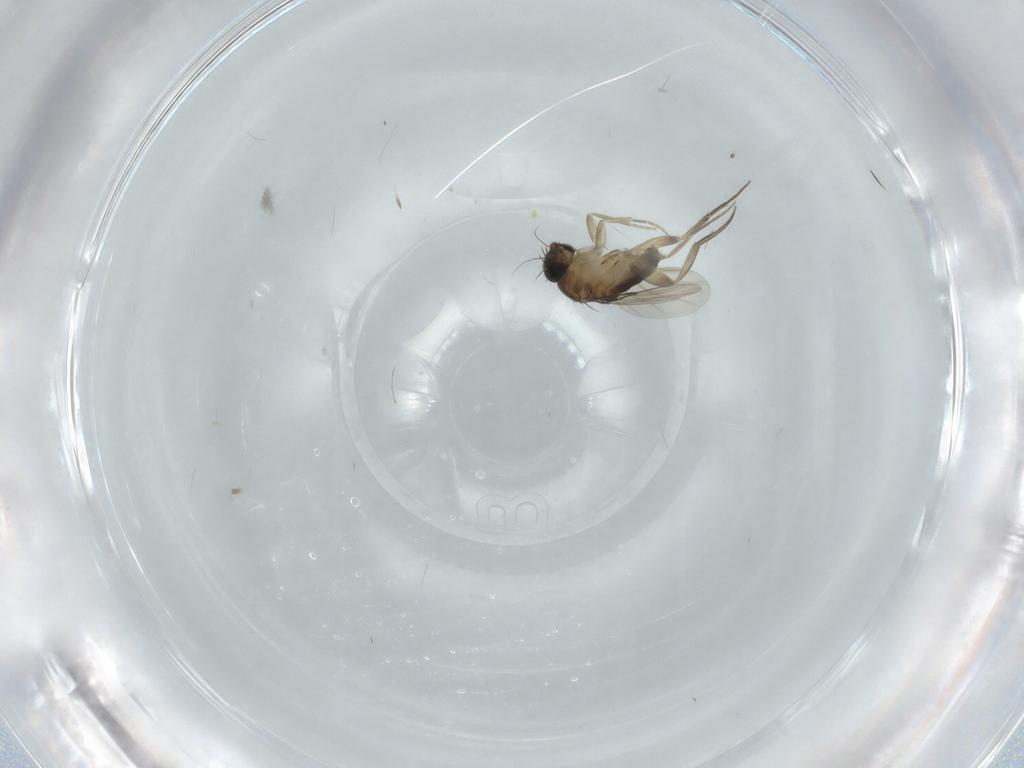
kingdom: Animalia
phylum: Arthropoda
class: Insecta
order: Diptera
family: Phoridae
